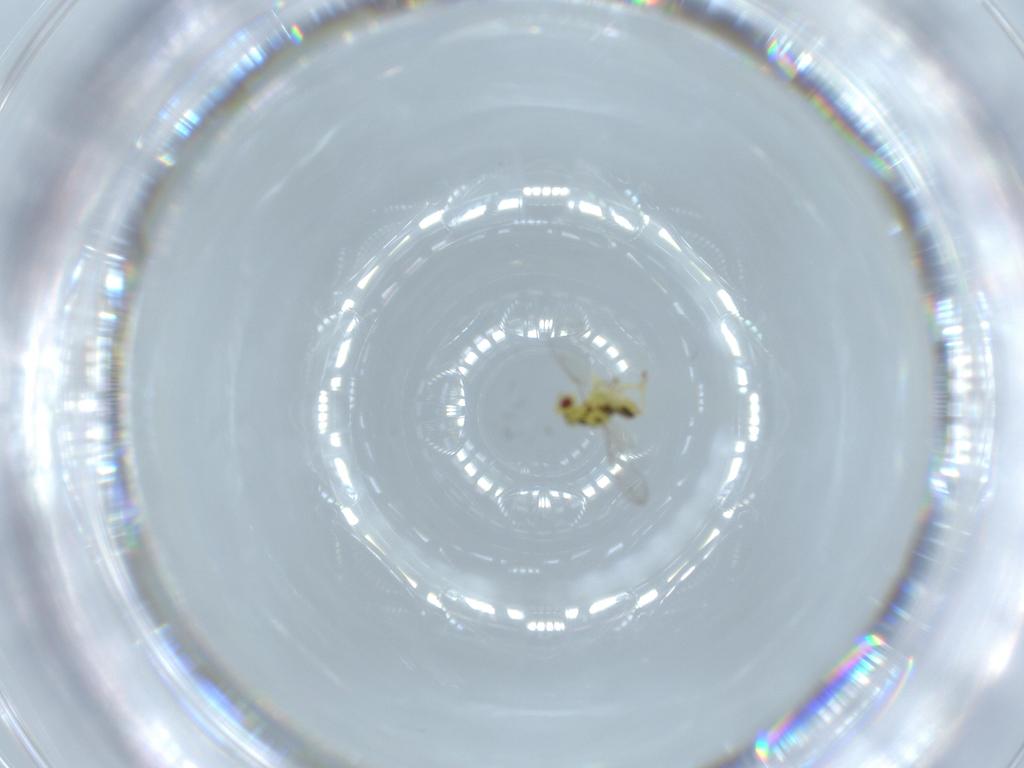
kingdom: Animalia
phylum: Arthropoda
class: Insecta
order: Hymenoptera
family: Eulophidae
